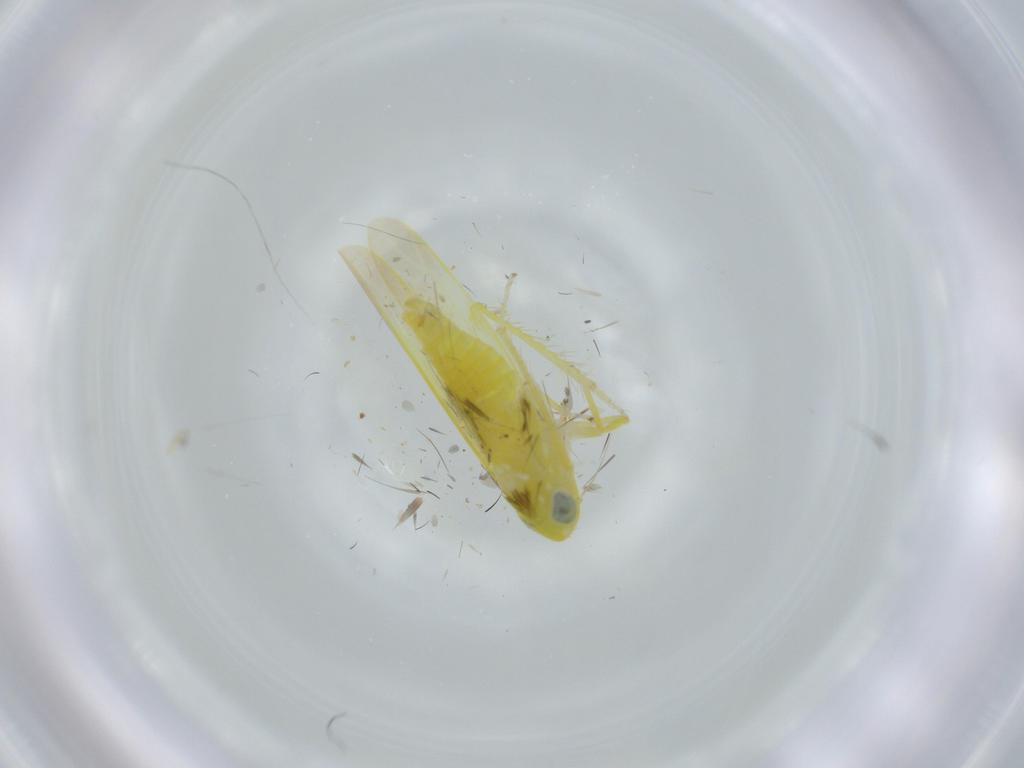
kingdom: Animalia
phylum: Arthropoda
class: Insecta
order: Hemiptera
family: Cicadellidae
